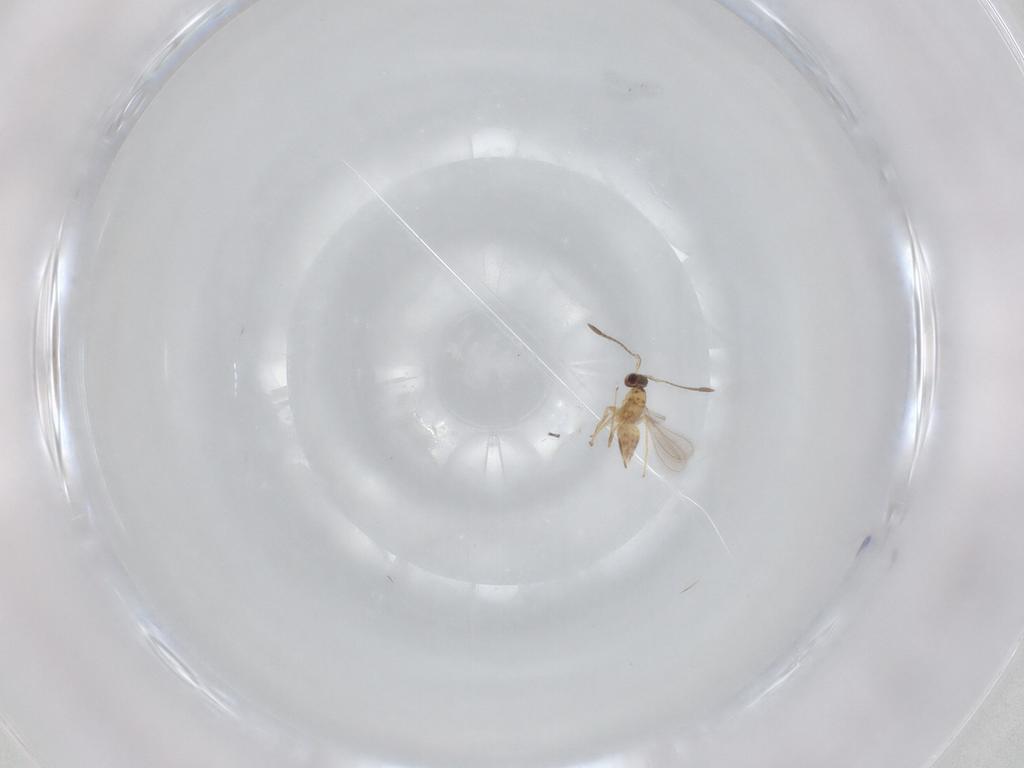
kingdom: Animalia
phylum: Arthropoda
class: Insecta
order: Hymenoptera
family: Mymaridae
